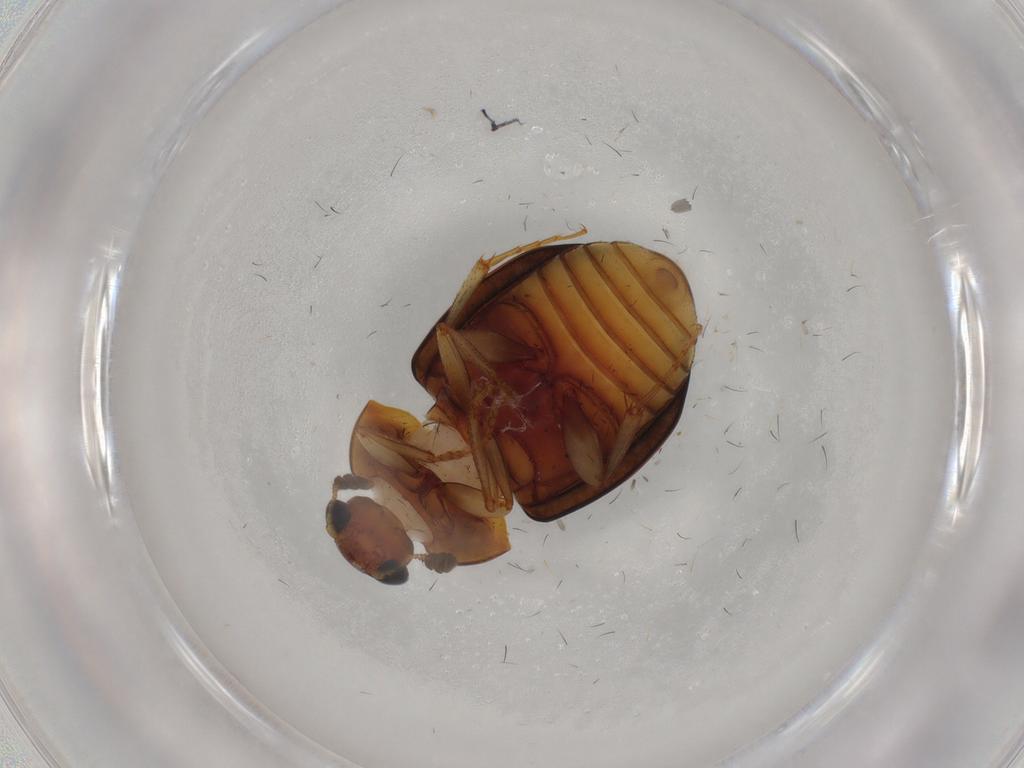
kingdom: Animalia
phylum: Arthropoda
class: Insecta
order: Coleoptera
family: Nitidulidae
